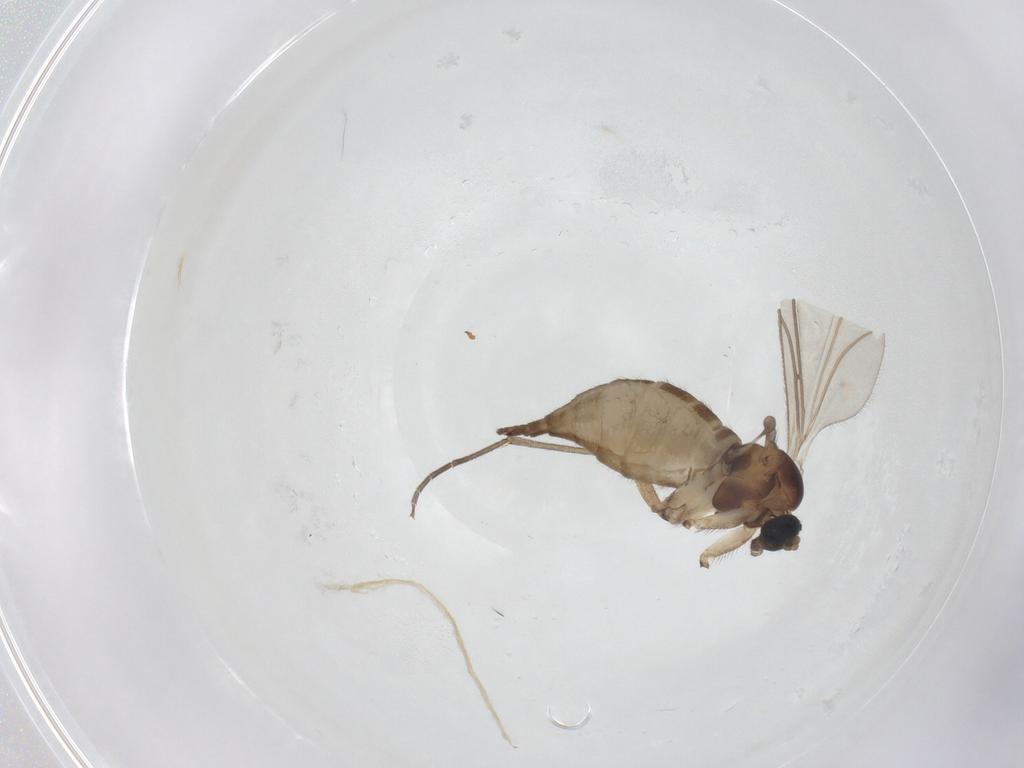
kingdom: Animalia
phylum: Arthropoda
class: Insecta
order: Diptera
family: Sciaridae
